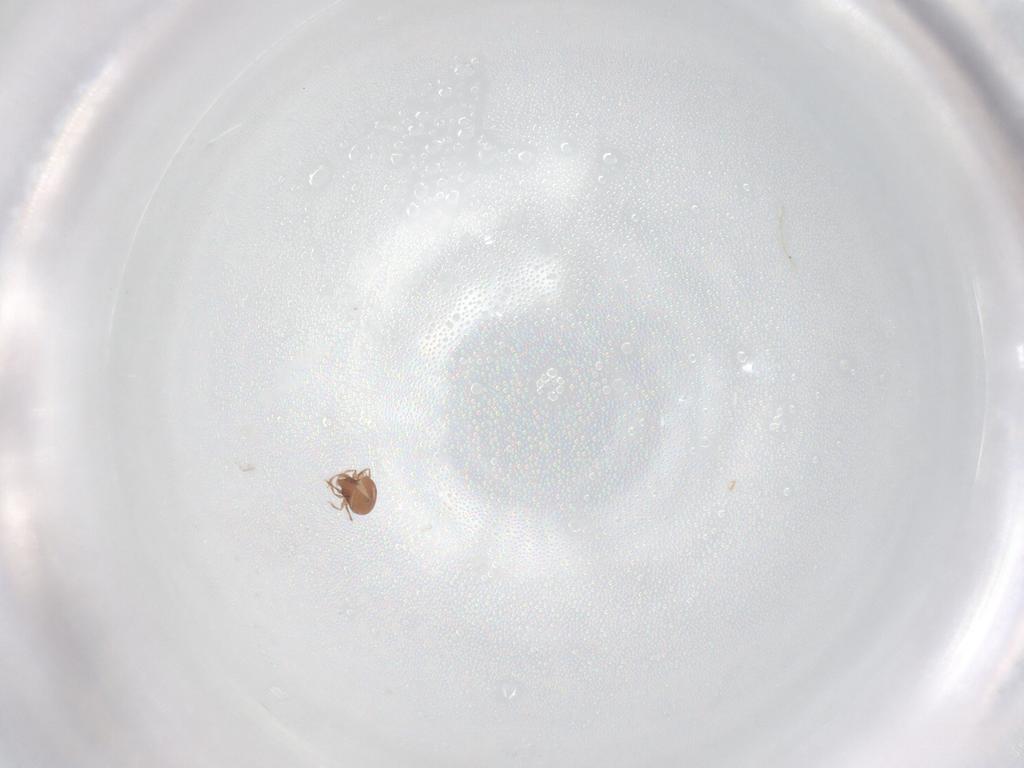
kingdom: Animalia
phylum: Arthropoda
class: Arachnida
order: Sarcoptiformes
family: Scheloribatidae
